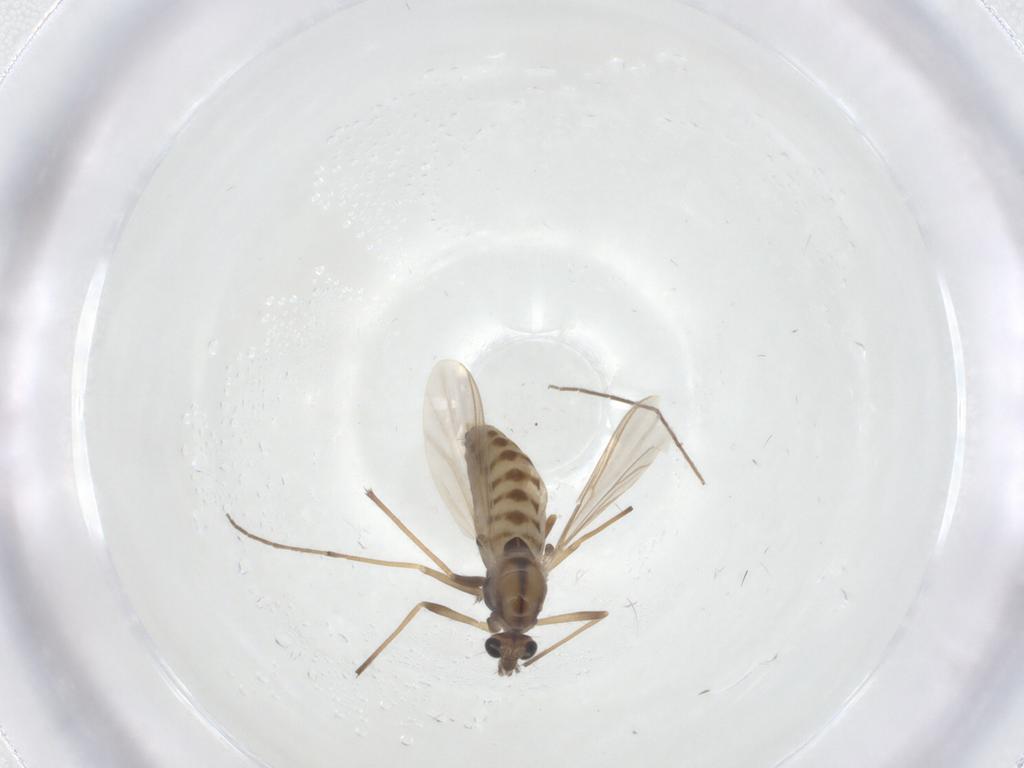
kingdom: Animalia
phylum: Arthropoda
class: Insecta
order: Diptera
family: Chironomidae
